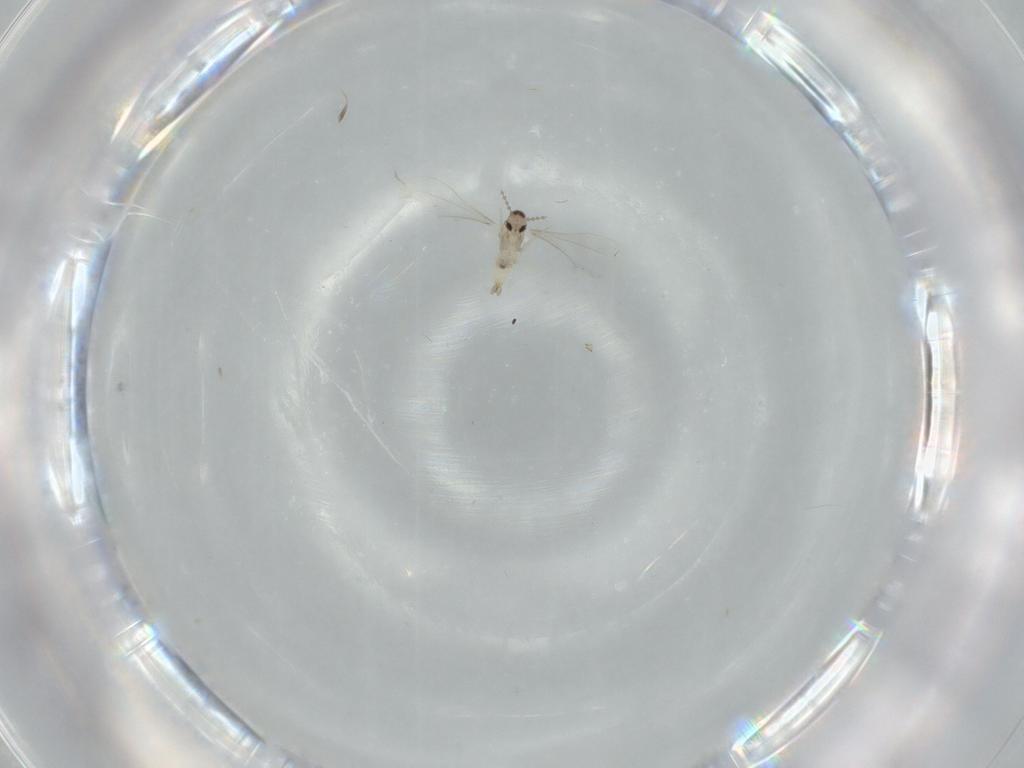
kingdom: Animalia
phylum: Arthropoda
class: Insecta
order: Diptera
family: Cecidomyiidae
